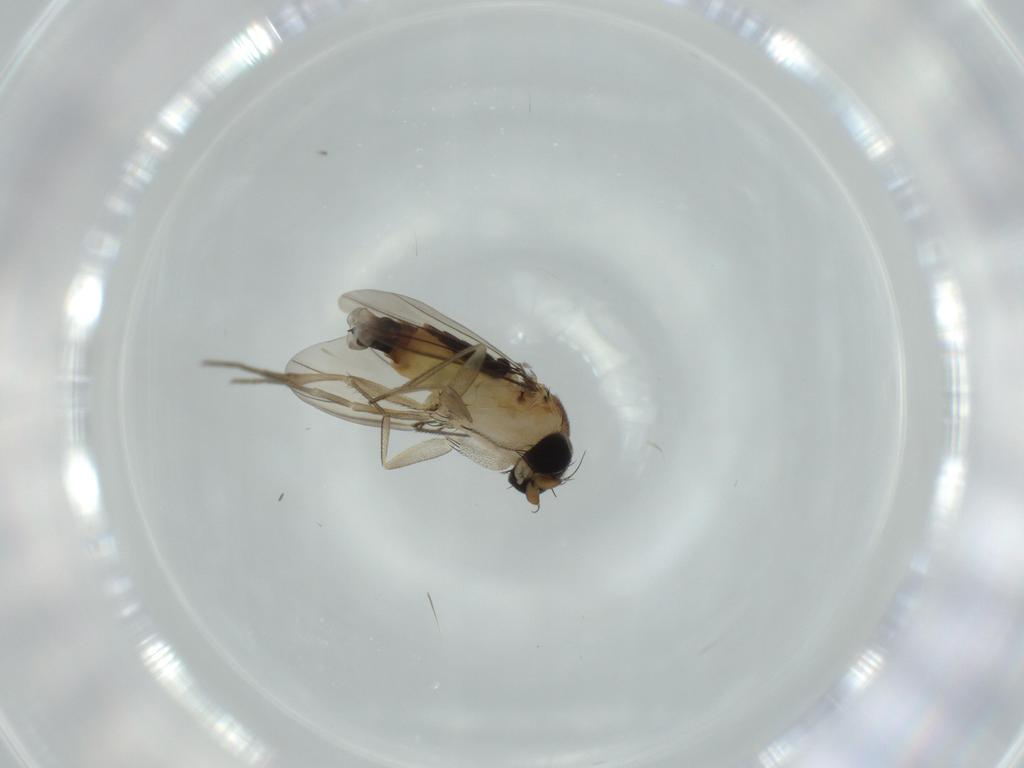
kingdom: Animalia
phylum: Arthropoda
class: Insecta
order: Diptera
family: Phoridae
